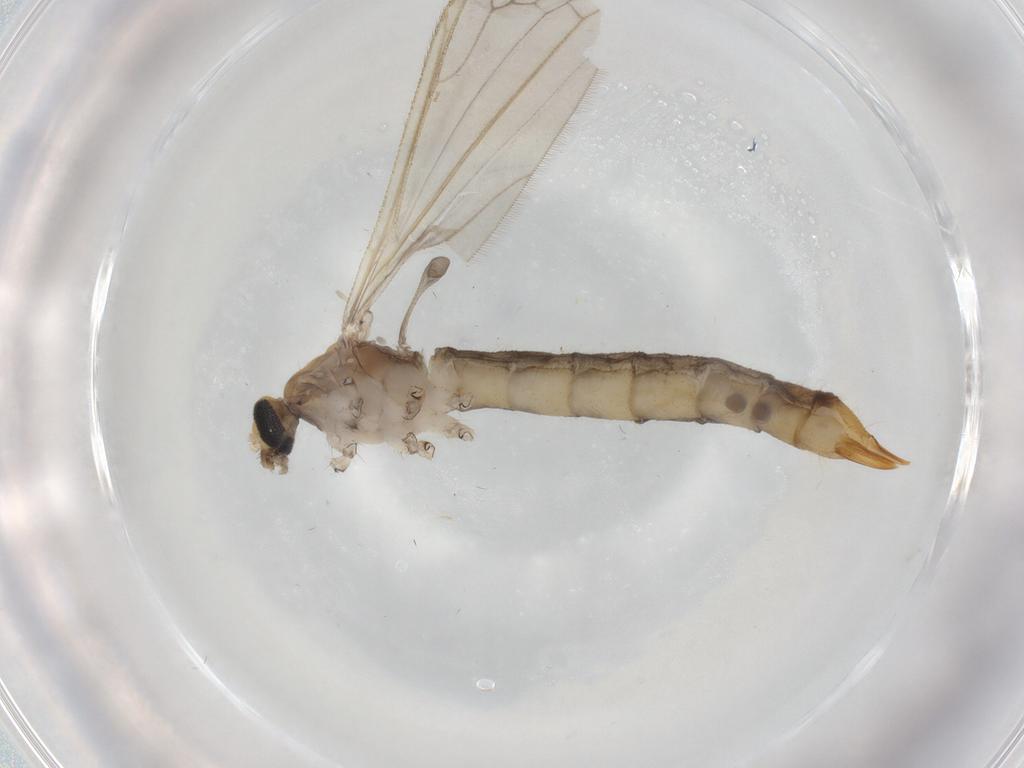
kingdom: Animalia
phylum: Arthropoda
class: Insecta
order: Diptera
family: Limoniidae
